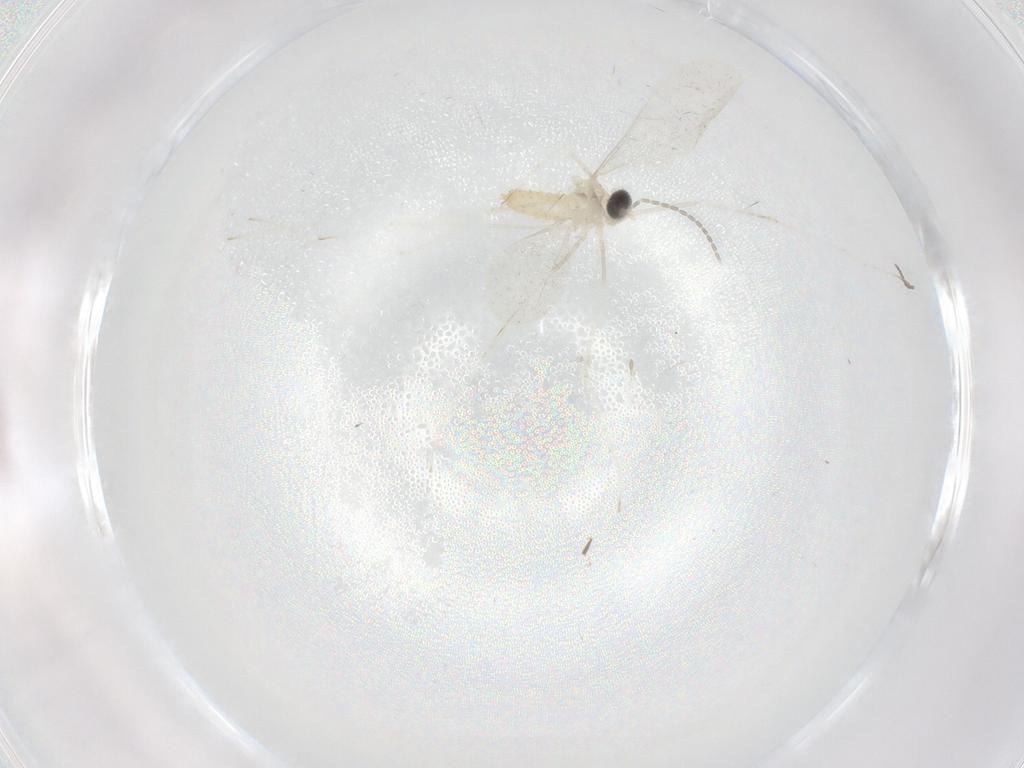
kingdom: Animalia
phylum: Arthropoda
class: Insecta
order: Diptera
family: Cecidomyiidae
